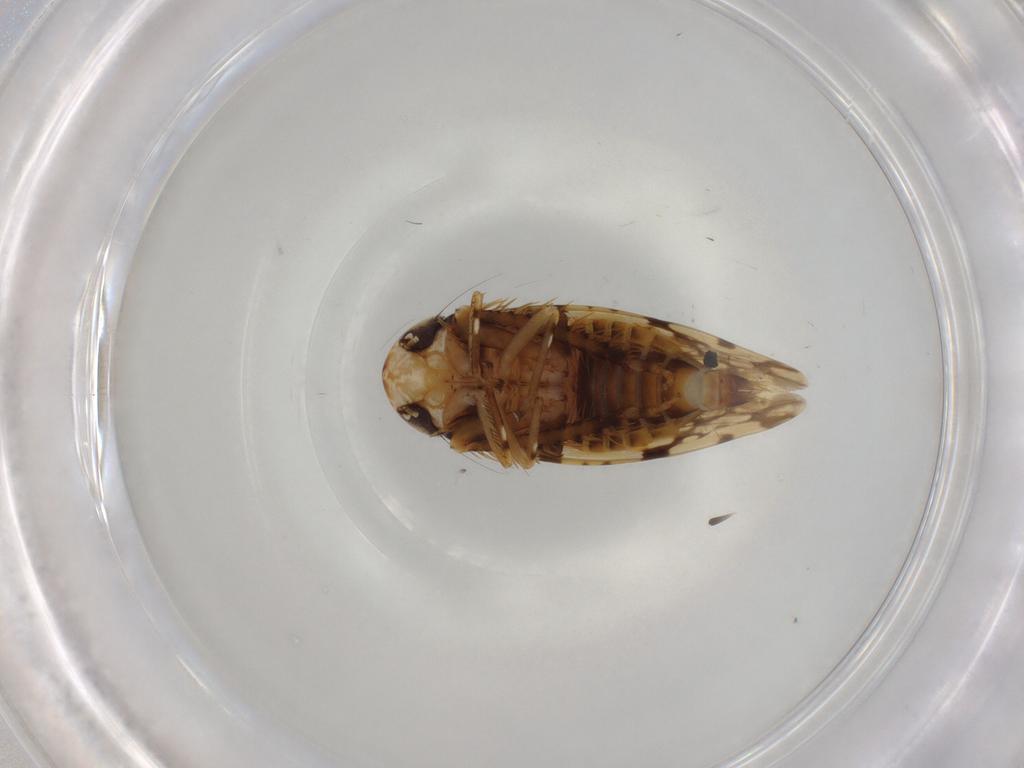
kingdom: Animalia
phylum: Arthropoda
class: Insecta
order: Hemiptera
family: Cicadellidae
